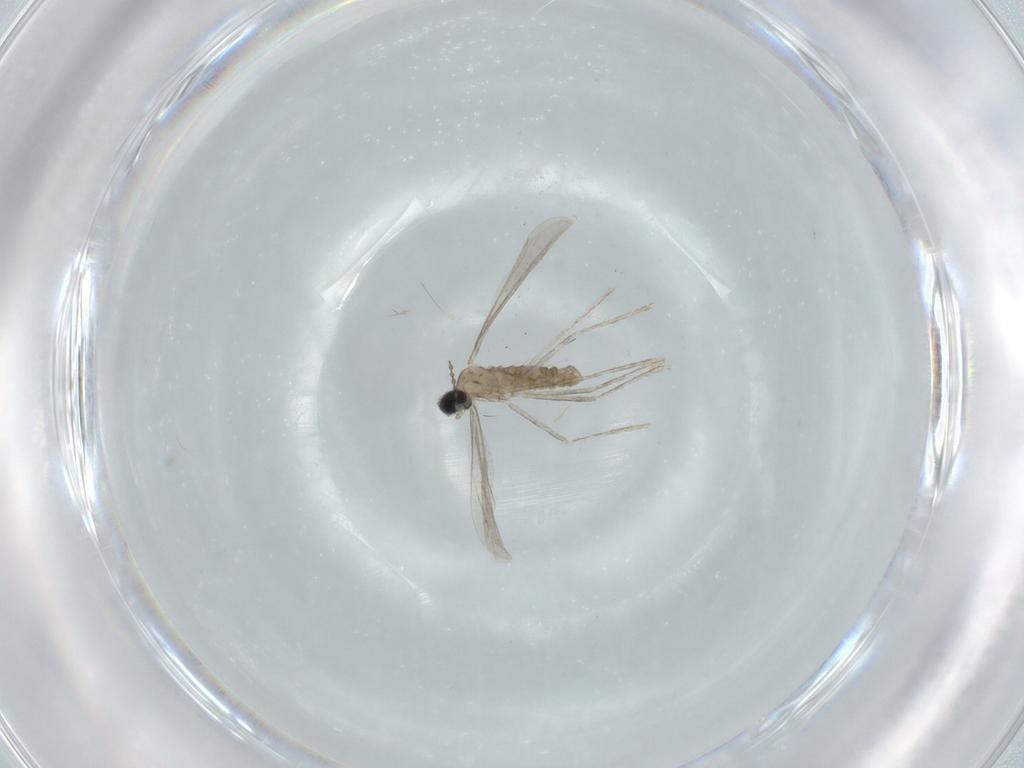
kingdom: Animalia
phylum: Arthropoda
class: Insecta
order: Diptera
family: Cecidomyiidae
